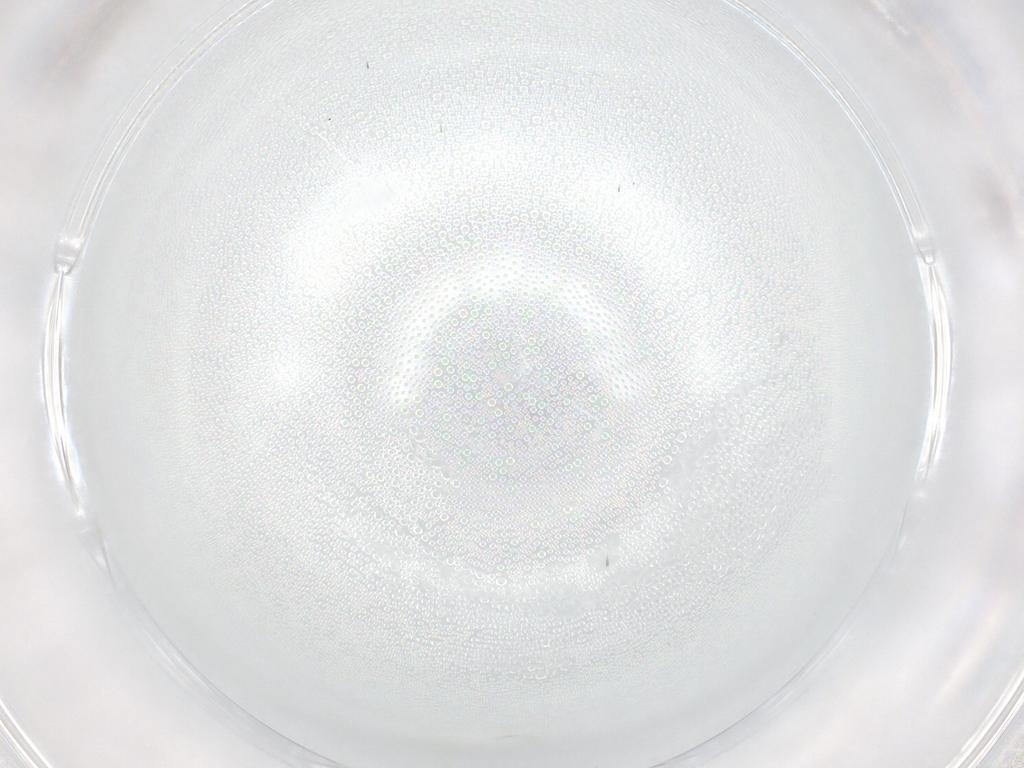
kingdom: Animalia
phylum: Arthropoda
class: Insecta
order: Diptera
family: Cecidomyiidae
